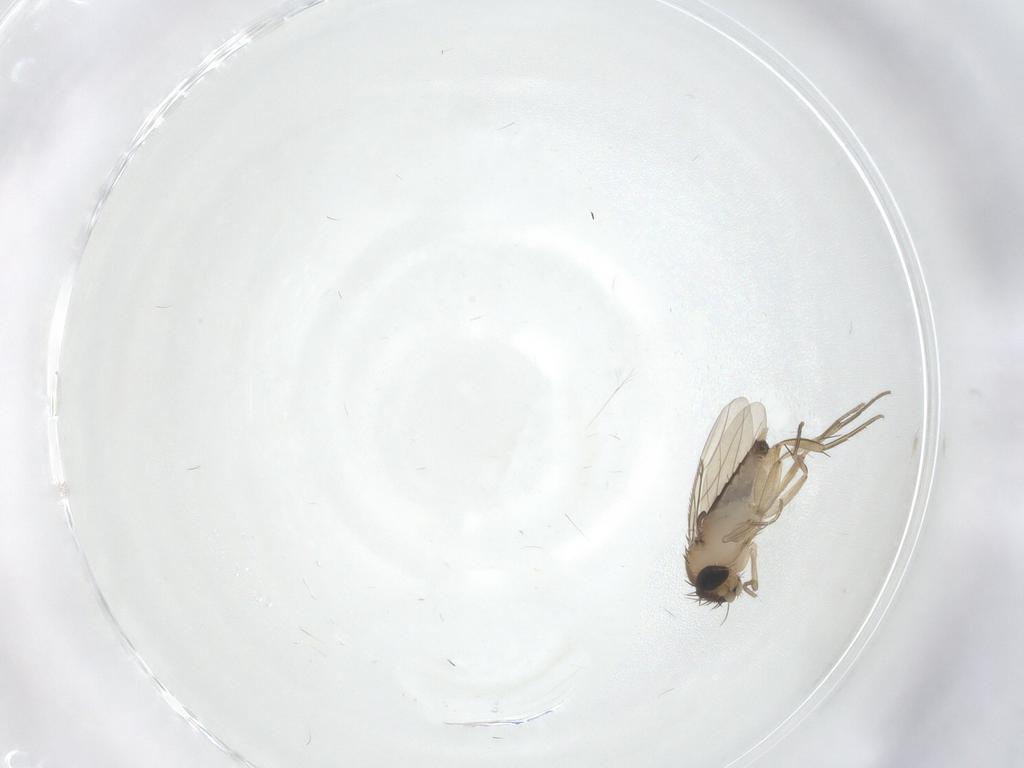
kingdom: Animalia
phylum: Arthropoda
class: Insecta
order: Diptera
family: Phoridae
